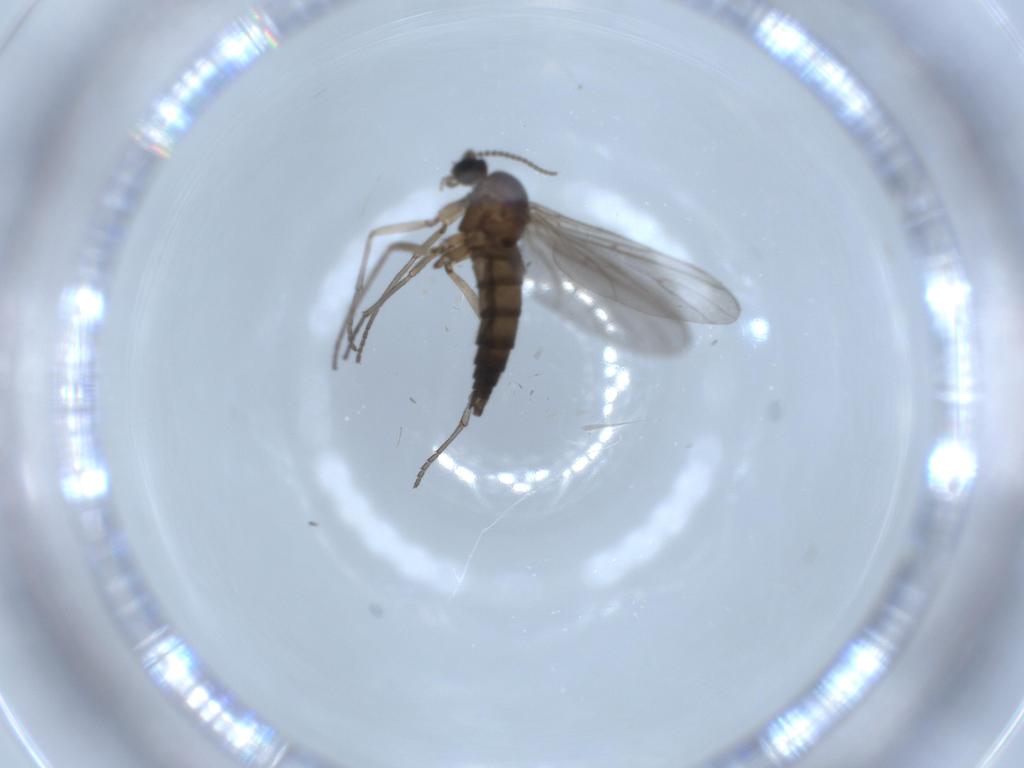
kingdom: Animalia
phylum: Arthropoda
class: Insecta
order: Diptera
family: Sciaridae
